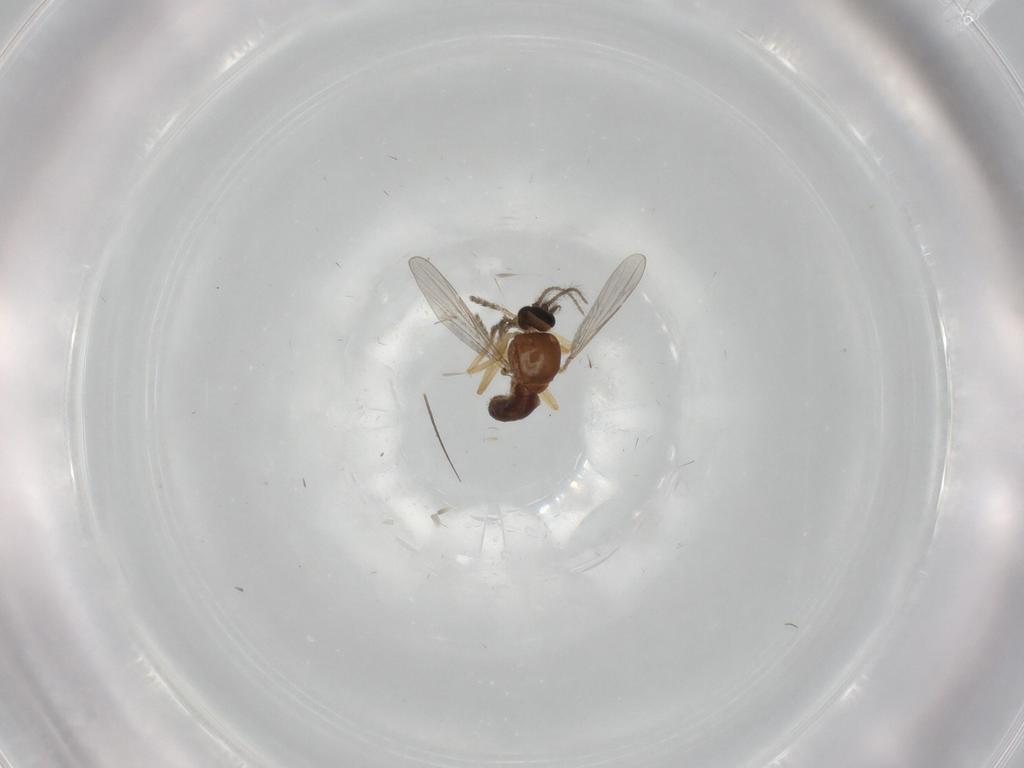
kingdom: Animalia
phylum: Arthropoda
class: Insecta
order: Diptera
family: Ceratopogonidae
